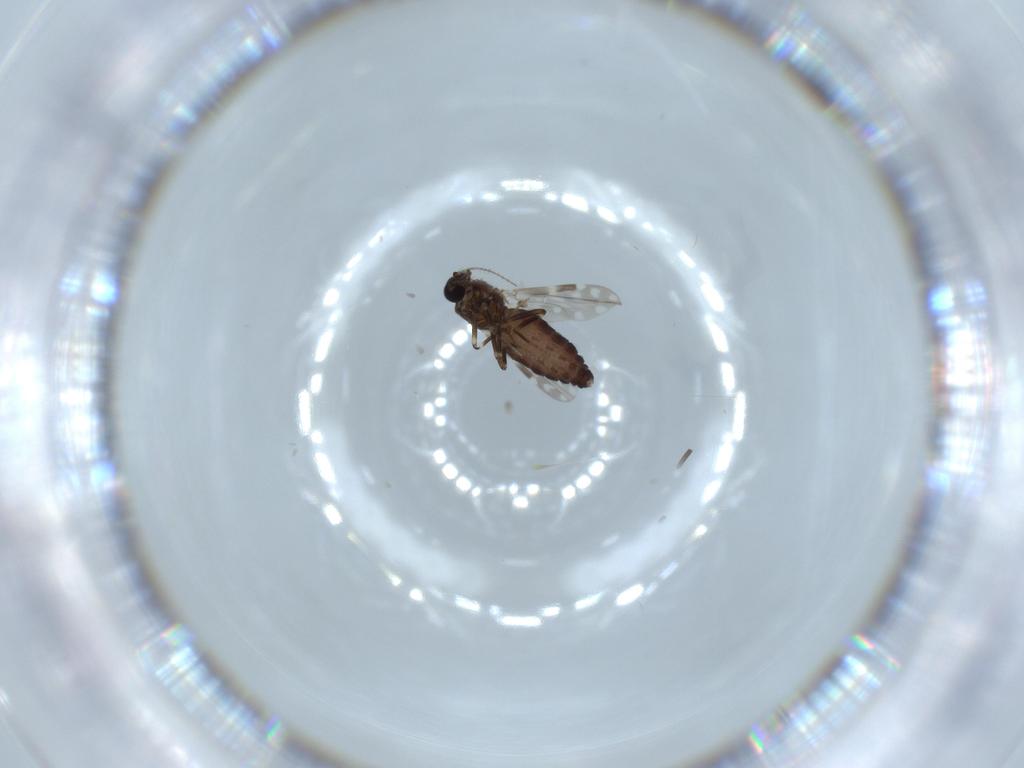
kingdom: Animalia
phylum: Arthropoda
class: Insecta
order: Diptera
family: Ceratopogonidae
